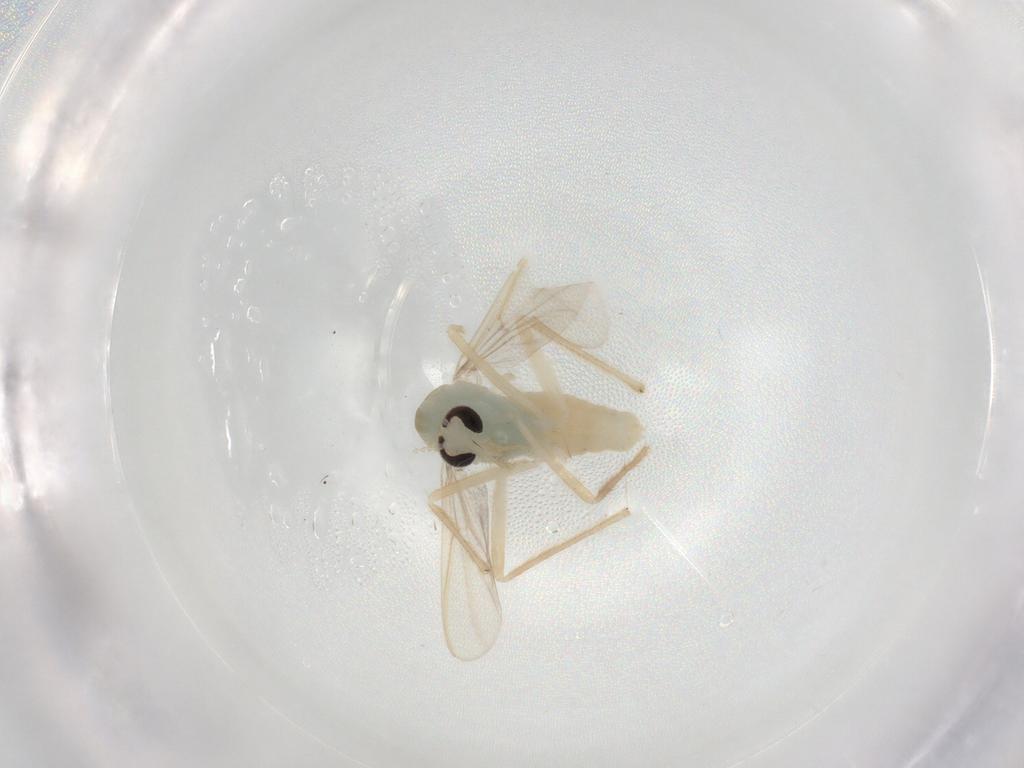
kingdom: Animalia
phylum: Arthropoda
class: Insecta
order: Diptera
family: Chironomidae
